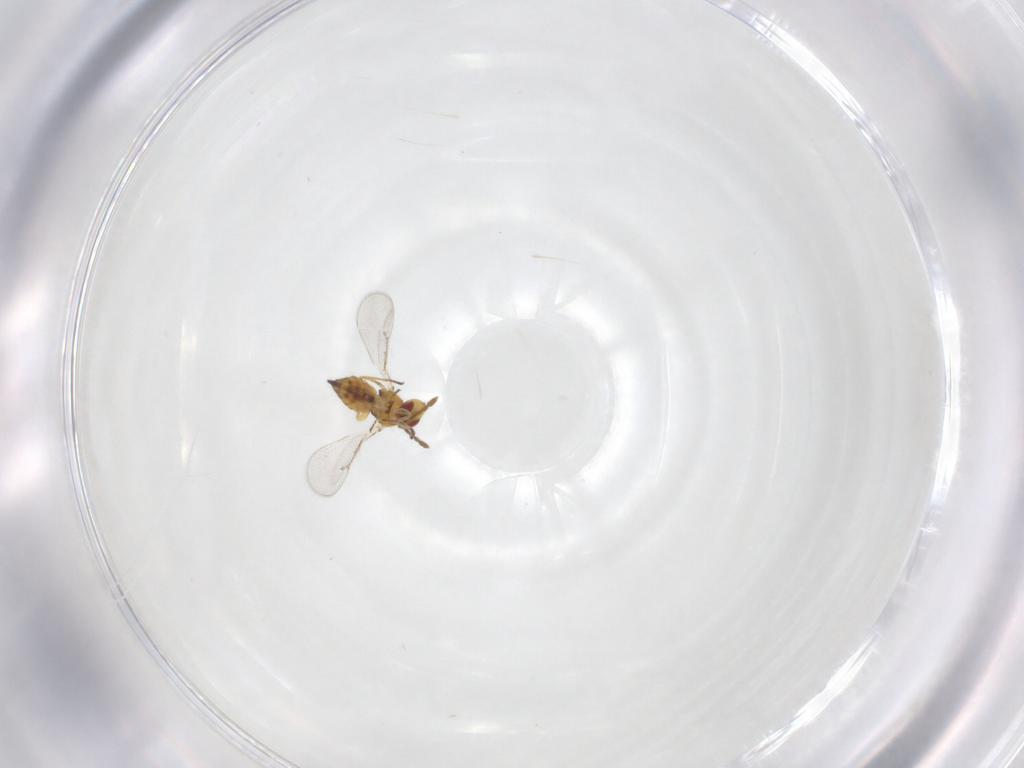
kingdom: Animalia
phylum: Arthropoda
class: Insecta
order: Hymenoptera
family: Eulophidae
